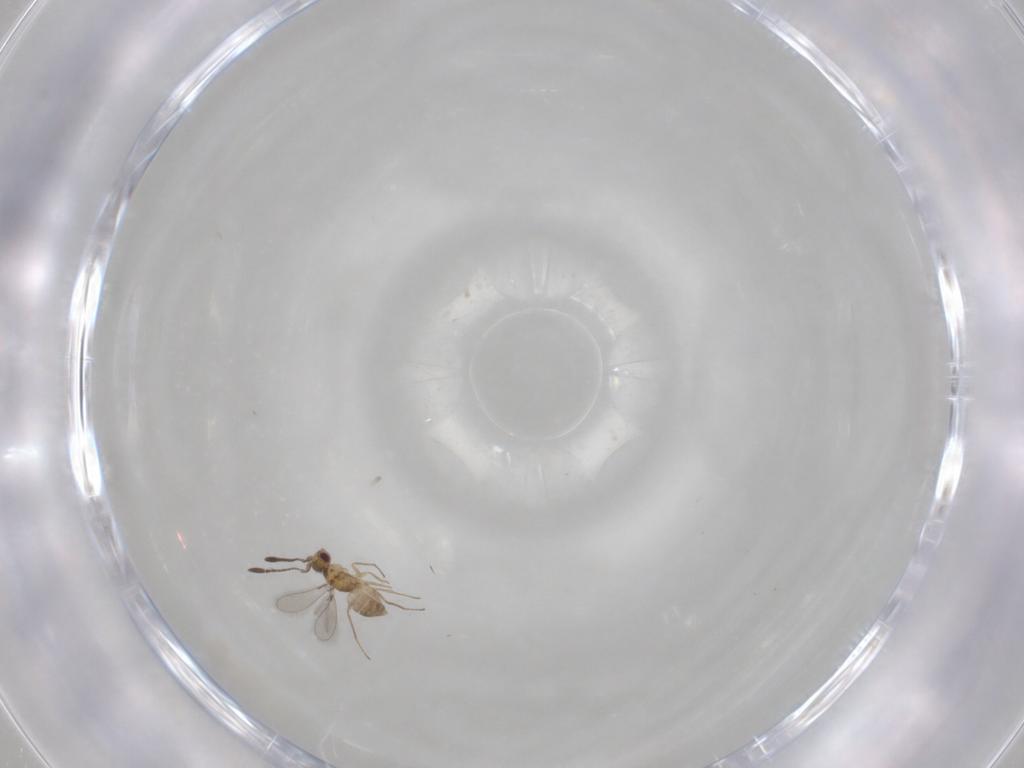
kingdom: Animalia
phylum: Arthropoda
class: Insecta
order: Hymenoptera
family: Mymaridae
